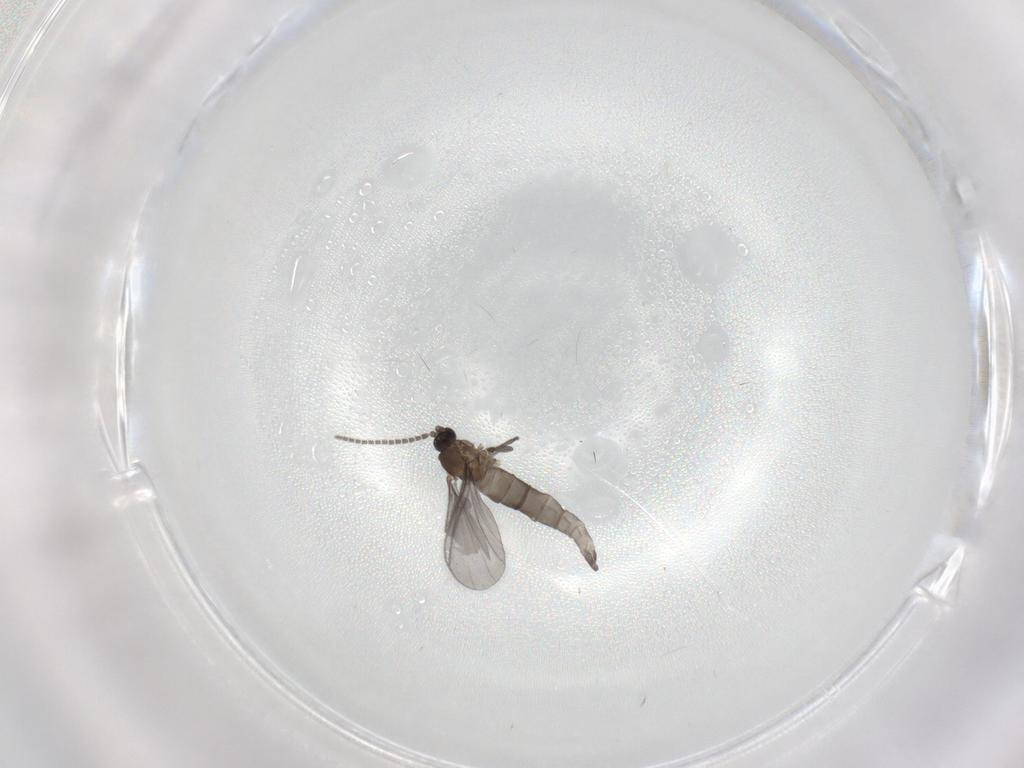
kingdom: Animalia
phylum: Arthropoda
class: Insecta
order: Diptera
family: Sciaridae
